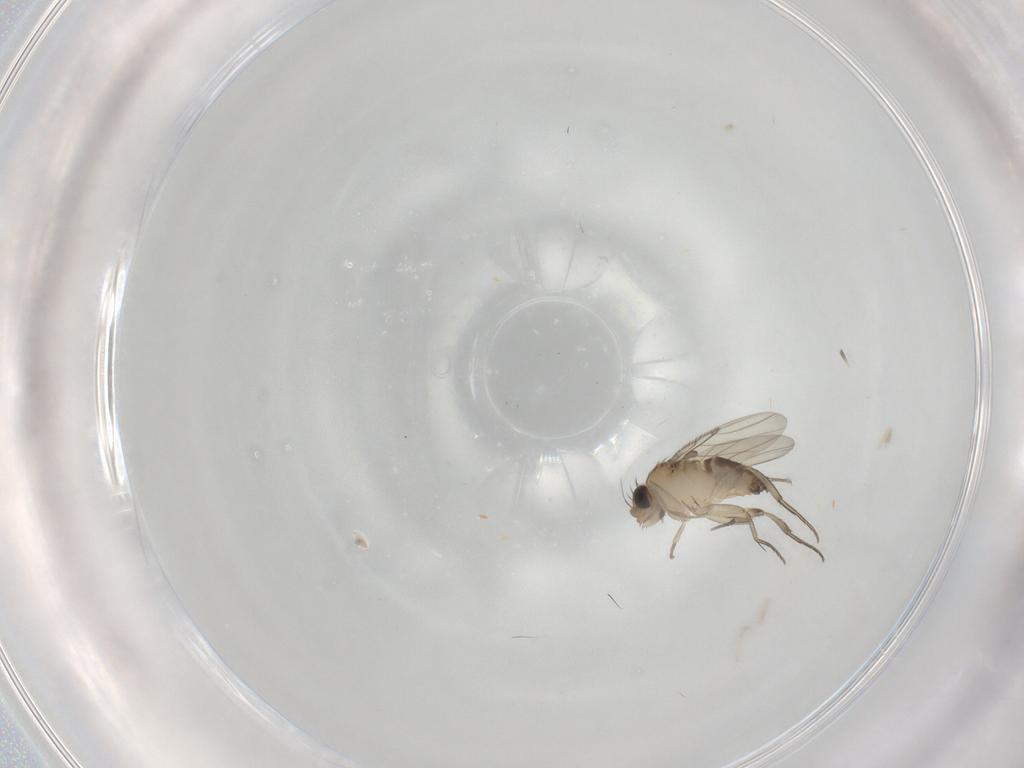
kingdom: Animalia
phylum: Arthropoda
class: Insecta
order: Diptera
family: Phoridae
